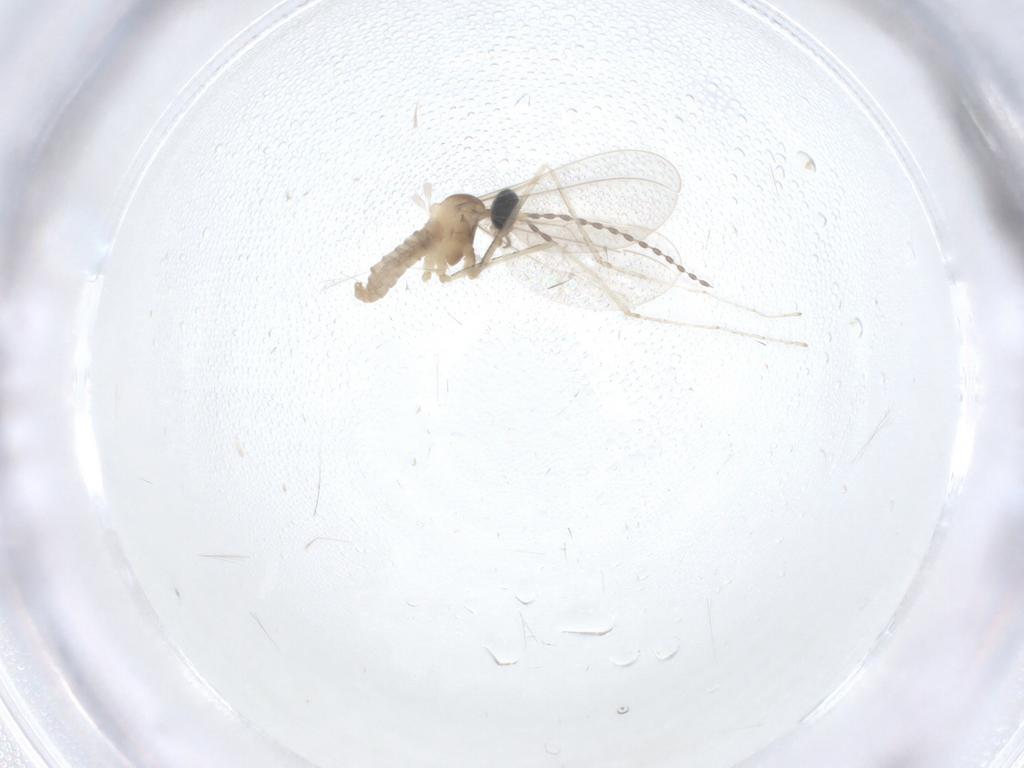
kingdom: Animalia
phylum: Arthropoda
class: Insecta
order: Diptera
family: Cecidomyiidae
